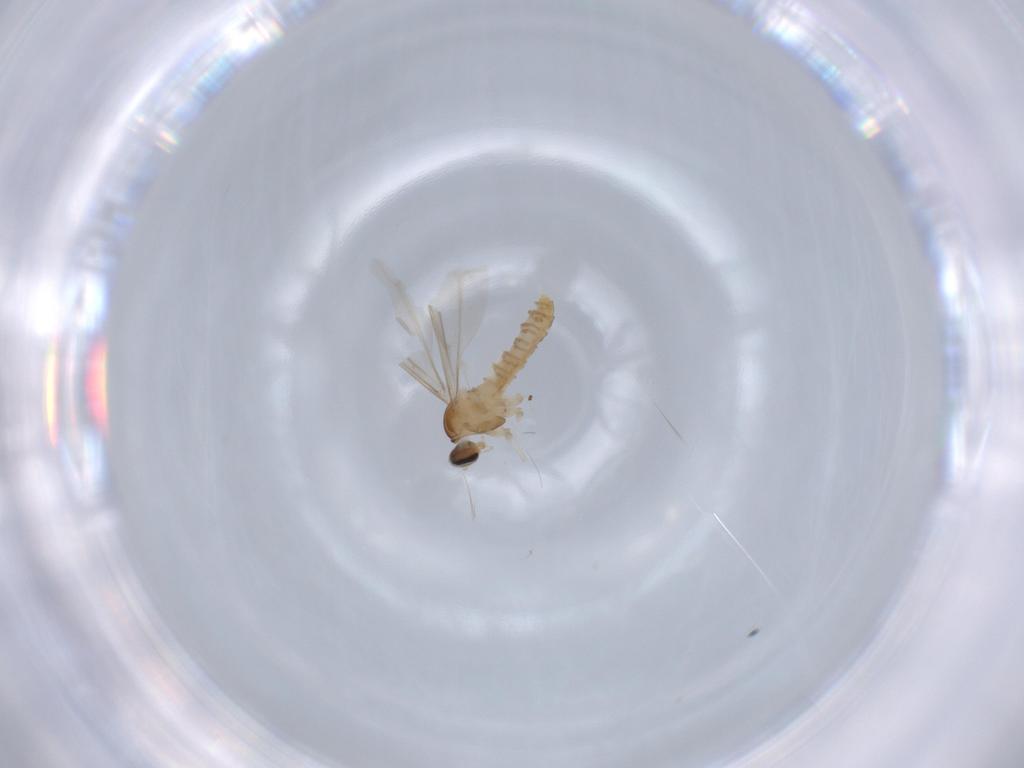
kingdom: Animalia
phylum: Arthropoda
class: Insecta
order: Diptera
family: Cecidomyiidae
